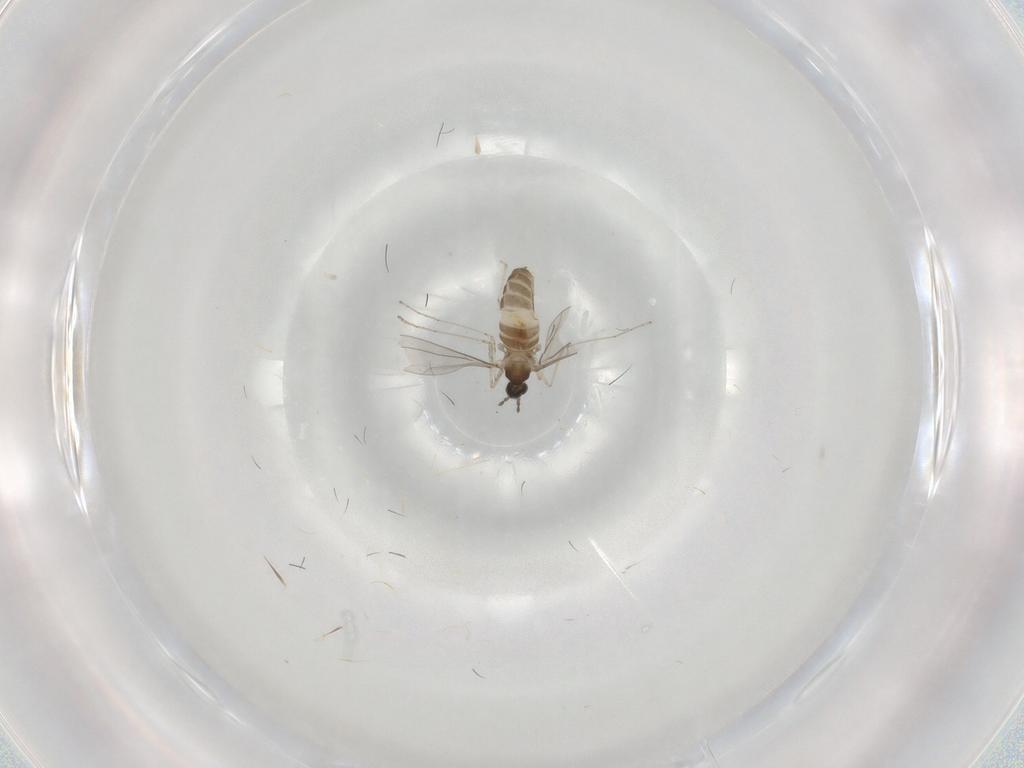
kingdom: Animalia
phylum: Arthropoda
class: Insecta
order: Diptera
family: Cecidomyiidae
